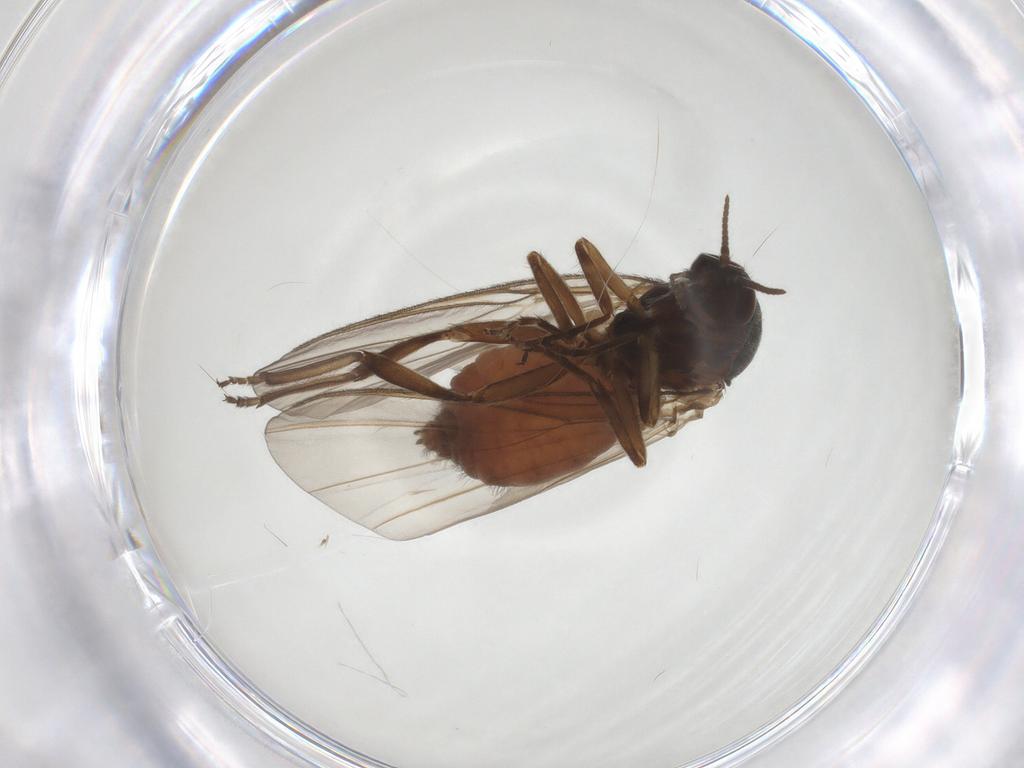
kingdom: Animalia
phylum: Arthropoda
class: Insecta
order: Diptera
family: Simuliidae
